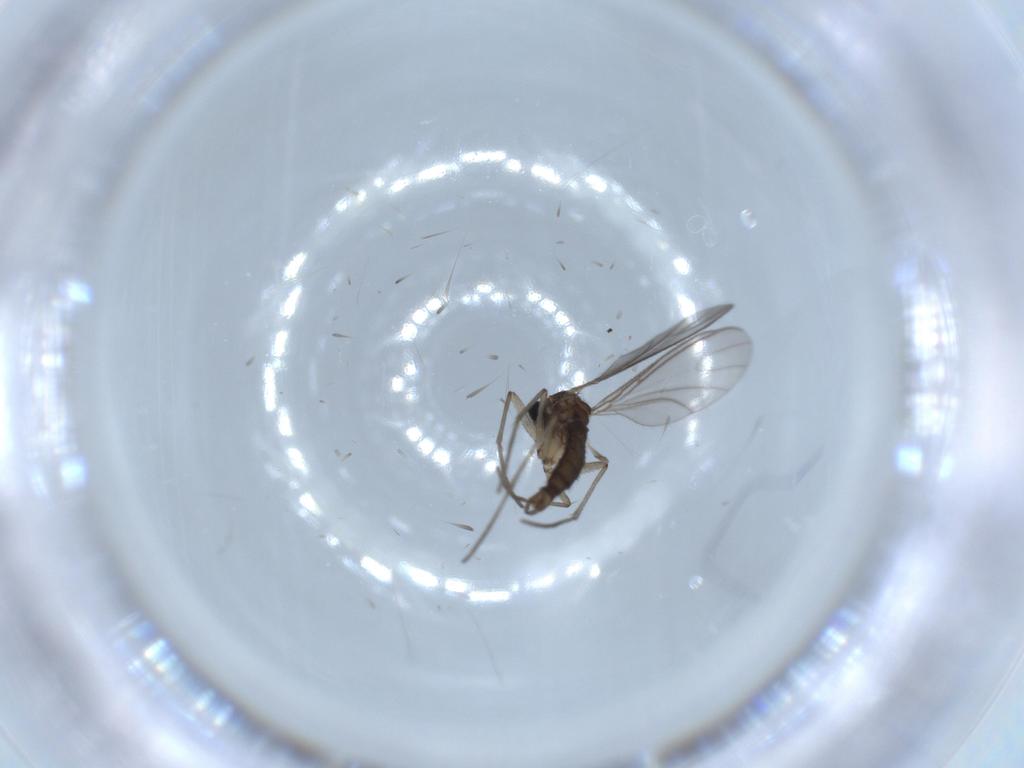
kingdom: Animalia
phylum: Arthropoda
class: Insecta
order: Diptera
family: Sciaridae
